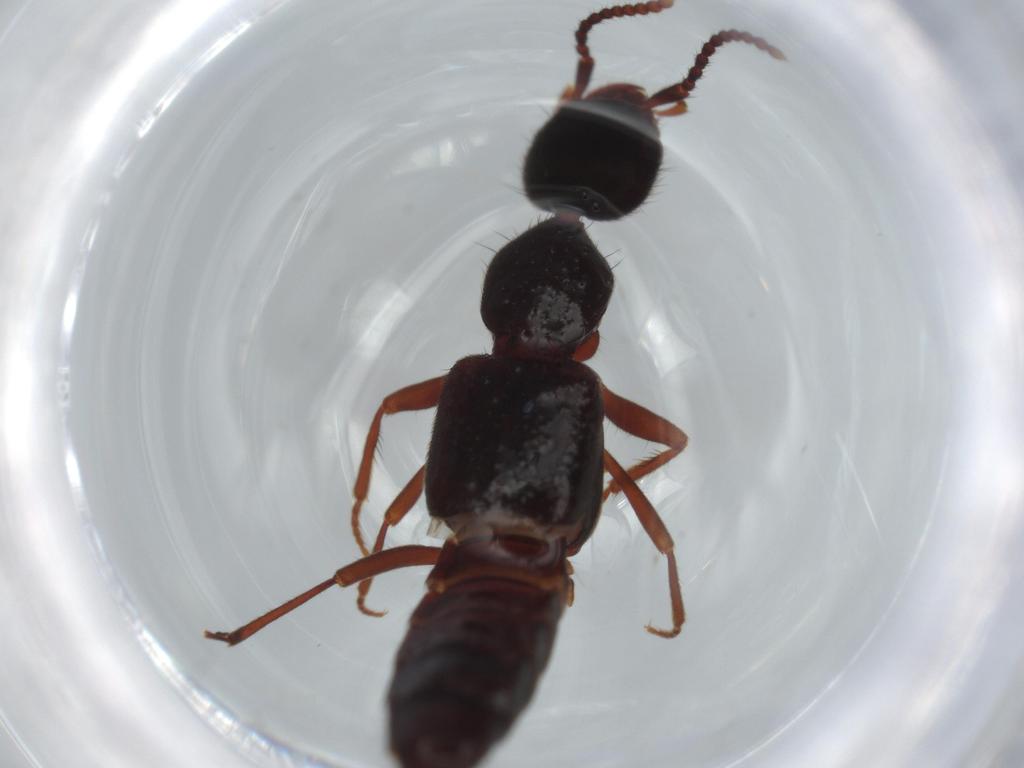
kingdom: Animalia
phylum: Arthropoda
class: Insecta
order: Coleoptera
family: Staphylinidae
